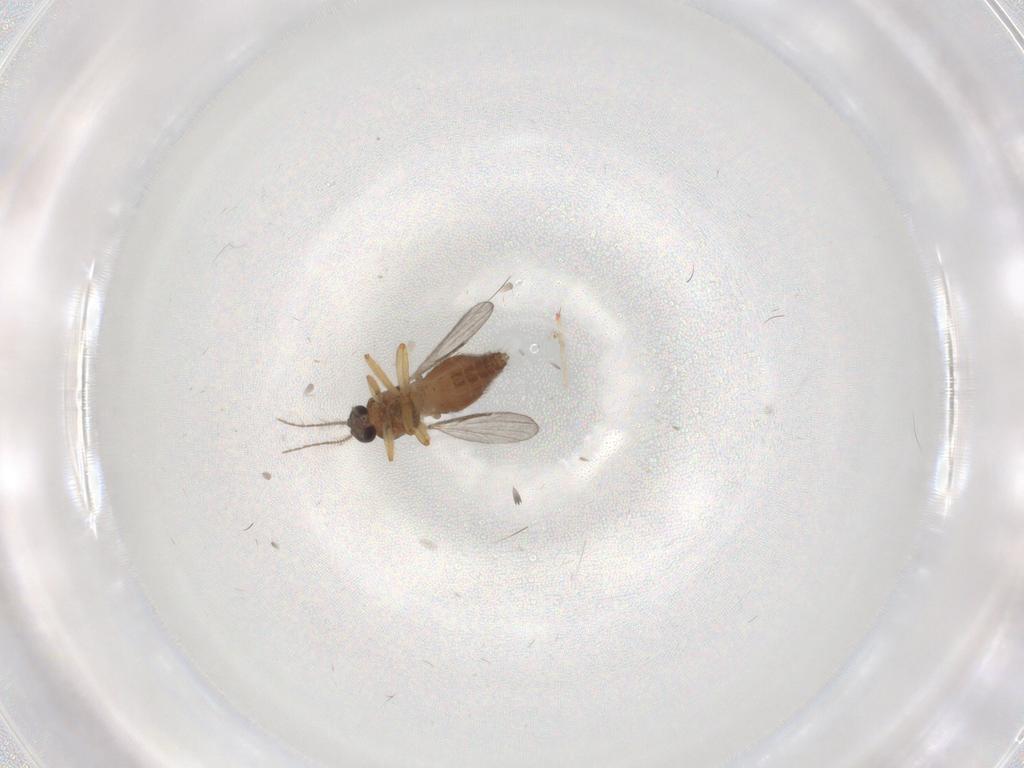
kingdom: Animalia
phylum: Arthropoda
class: Insecta
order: Diptera
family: Ceratopogonidae
